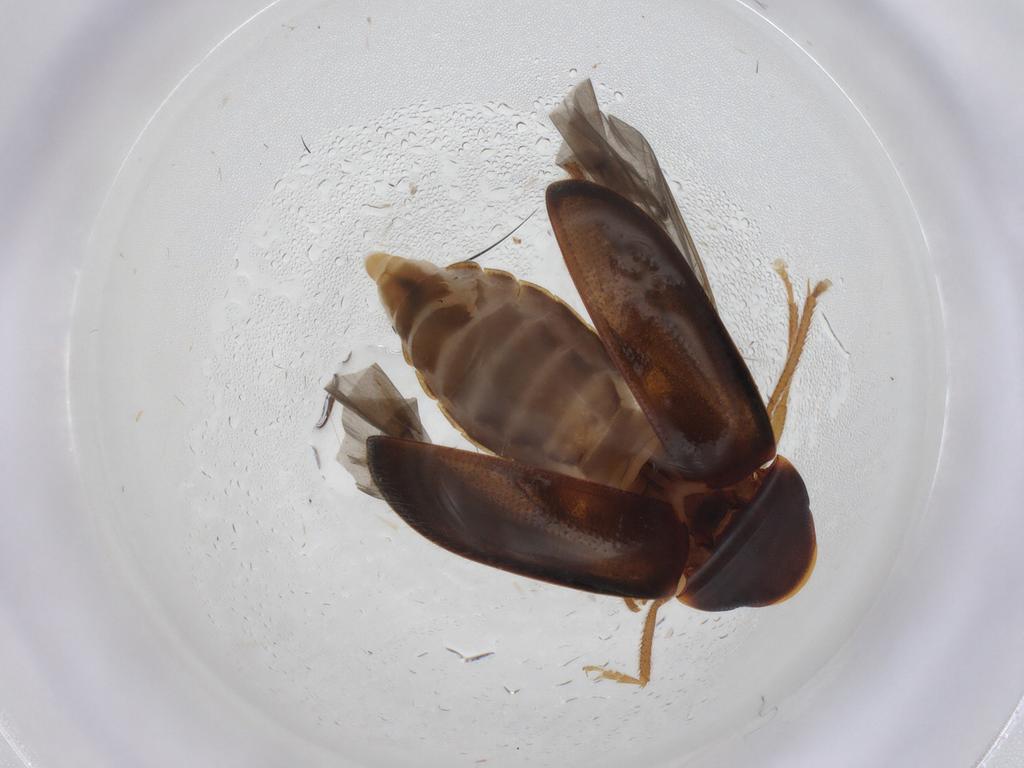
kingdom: Animalia
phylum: Arthropoda
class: Insecta
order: Coleoptera
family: Ptilodactylidae
